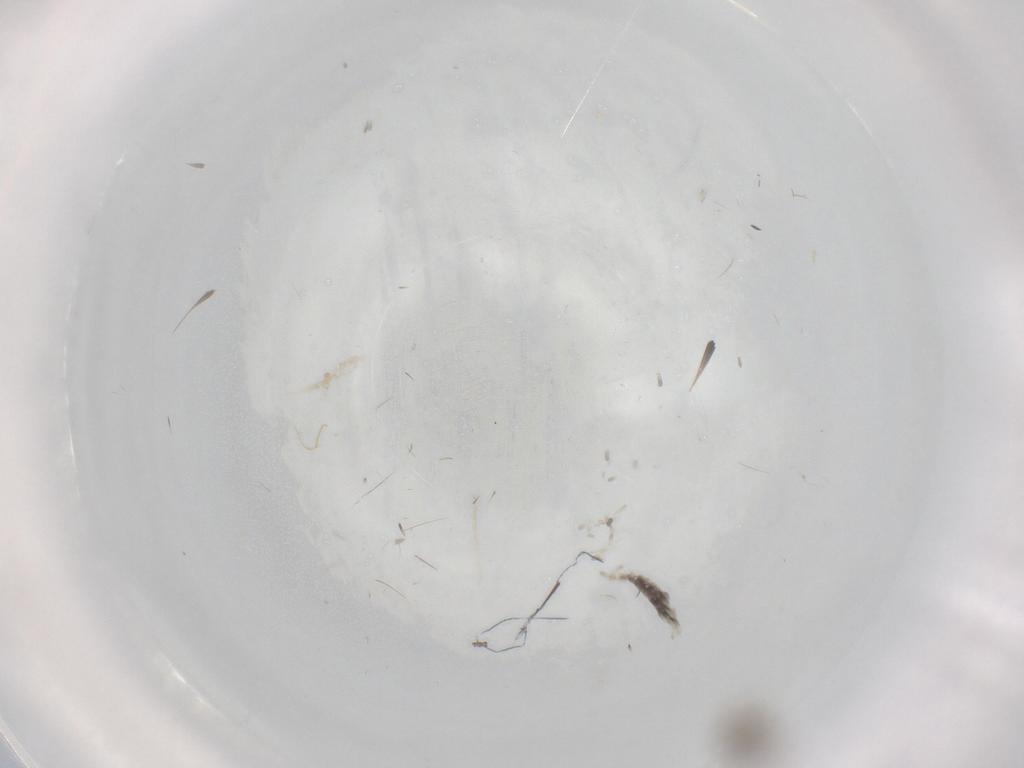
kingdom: Animalia
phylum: Arthropoda
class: Insecta
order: Diptera
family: Cecidomyiidae
